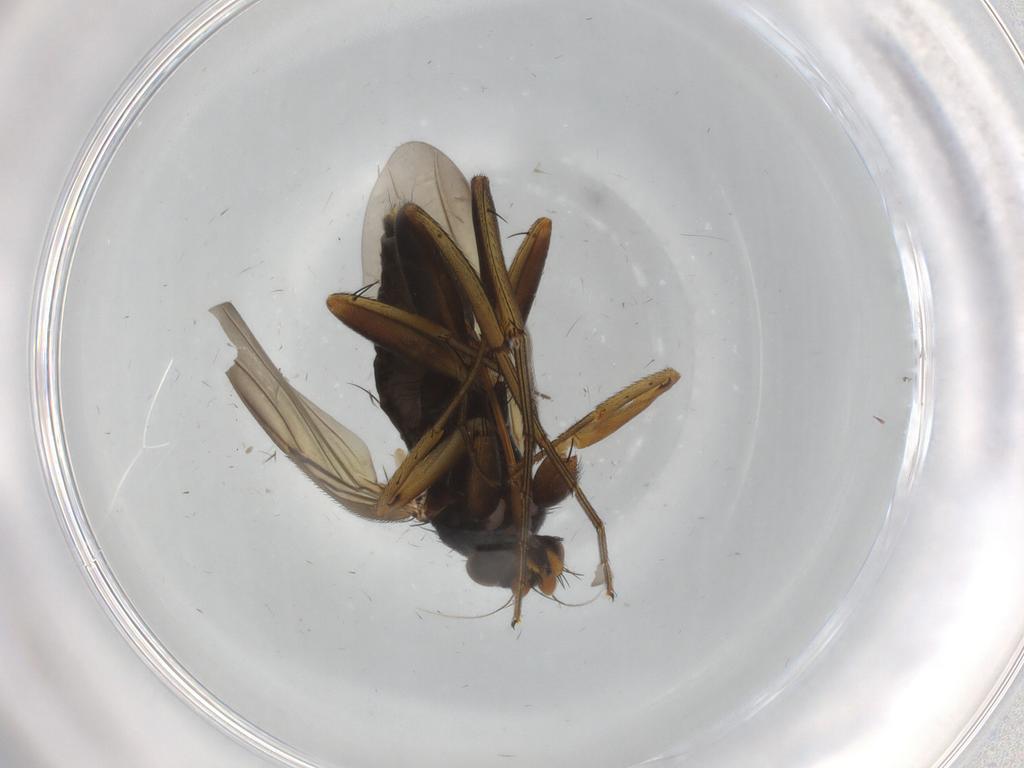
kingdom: Animalia
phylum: Arthropoda
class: Insecta
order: Diptera
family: Phoridae
